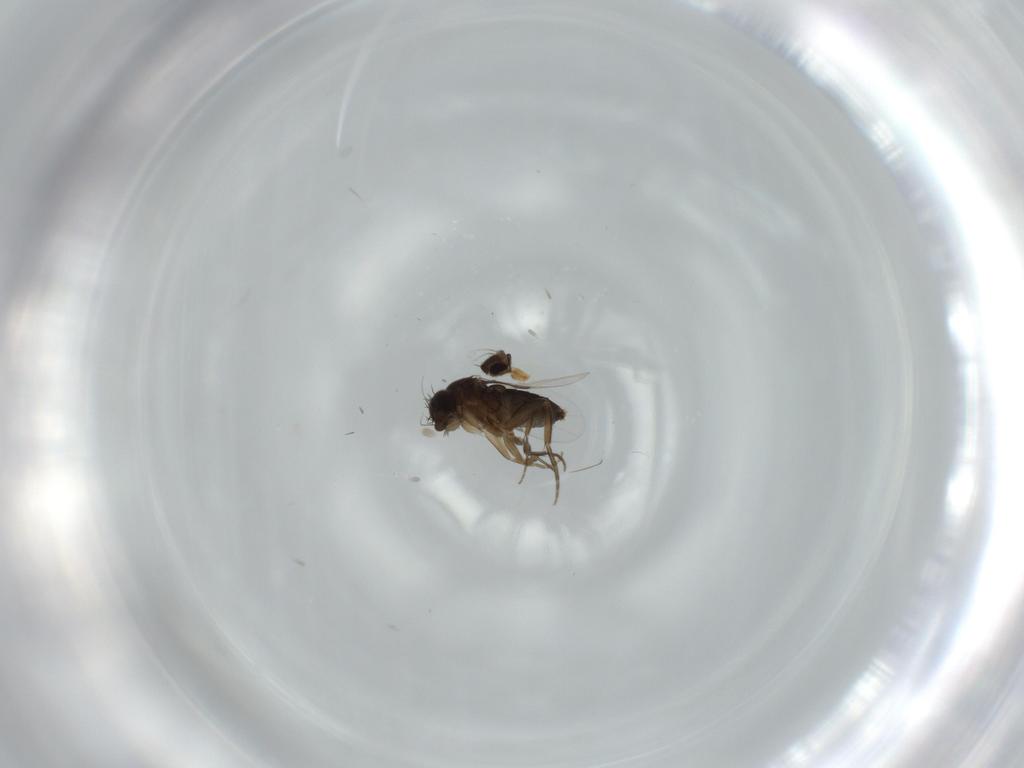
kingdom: Animalia
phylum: Arthropoda
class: Insecta
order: Diptera
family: Phoridae
